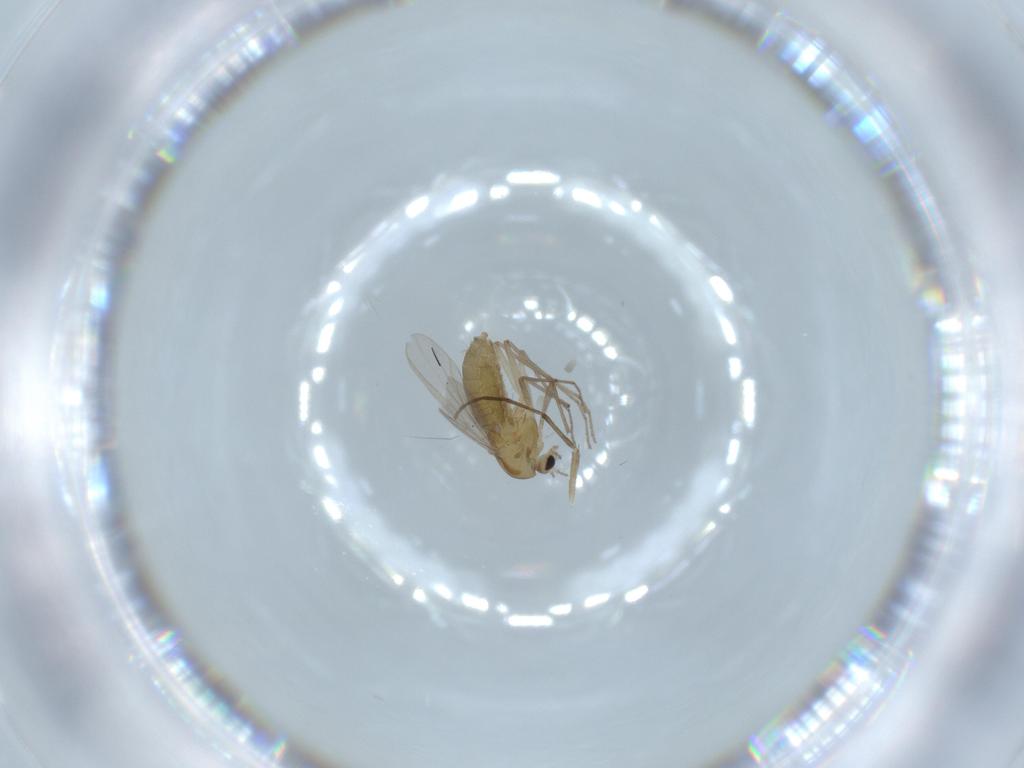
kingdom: Animalia
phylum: Arthropoda
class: Insecta
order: Diptera
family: Chironomidae
